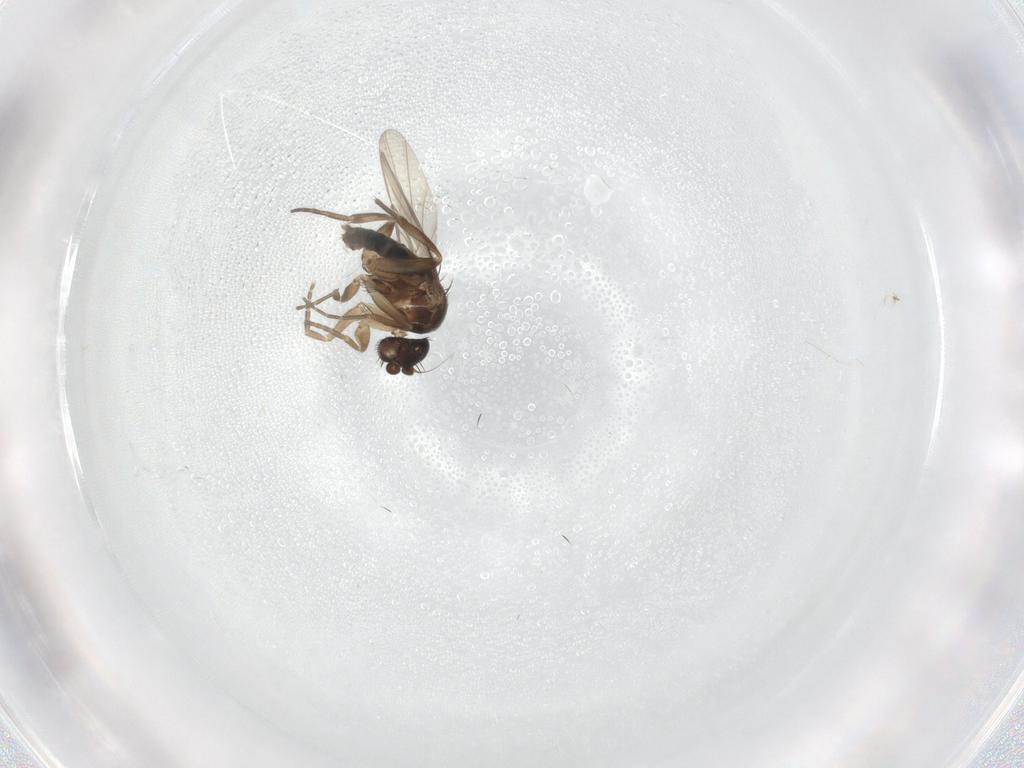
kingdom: Animalia
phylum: Arthropoda
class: Insecta
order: Diptera
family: Phoridae
